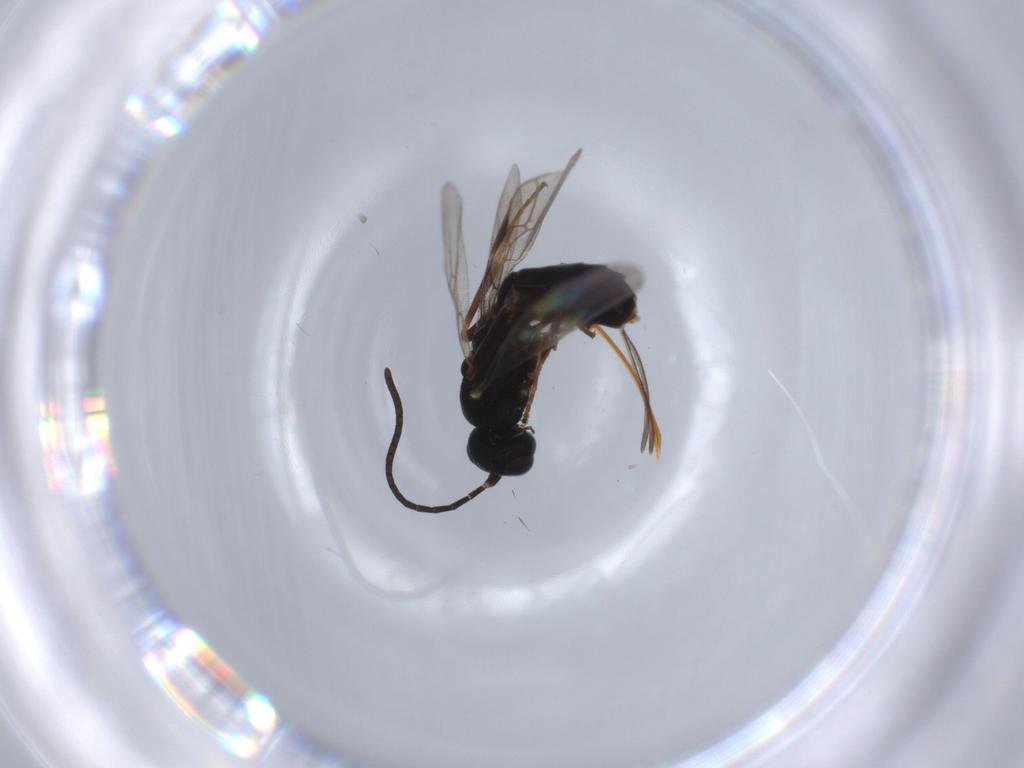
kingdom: Animalia
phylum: Arthropoda
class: Insecta
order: Hymenoptera
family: Ichneumonidae
